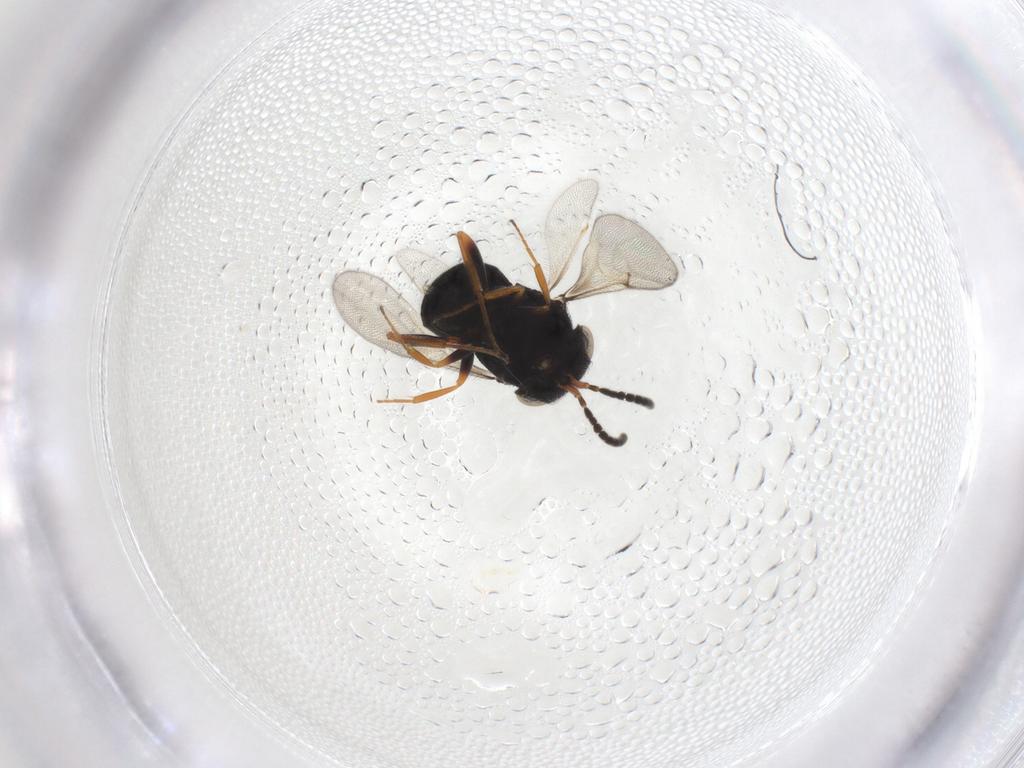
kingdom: Animalia
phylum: Arthropoda
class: Insecta
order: Hymenoptera
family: Scelionidae
